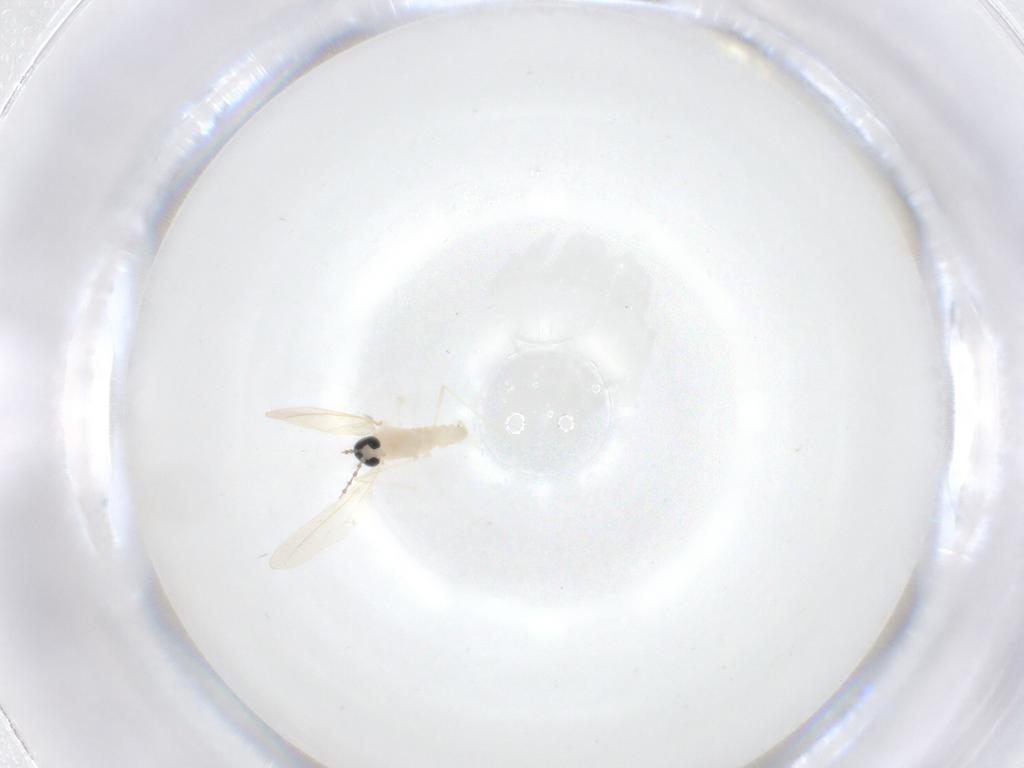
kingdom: Animalia
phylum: Arthropoda
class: Insecta
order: Diptera
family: Cecidomyiidae
